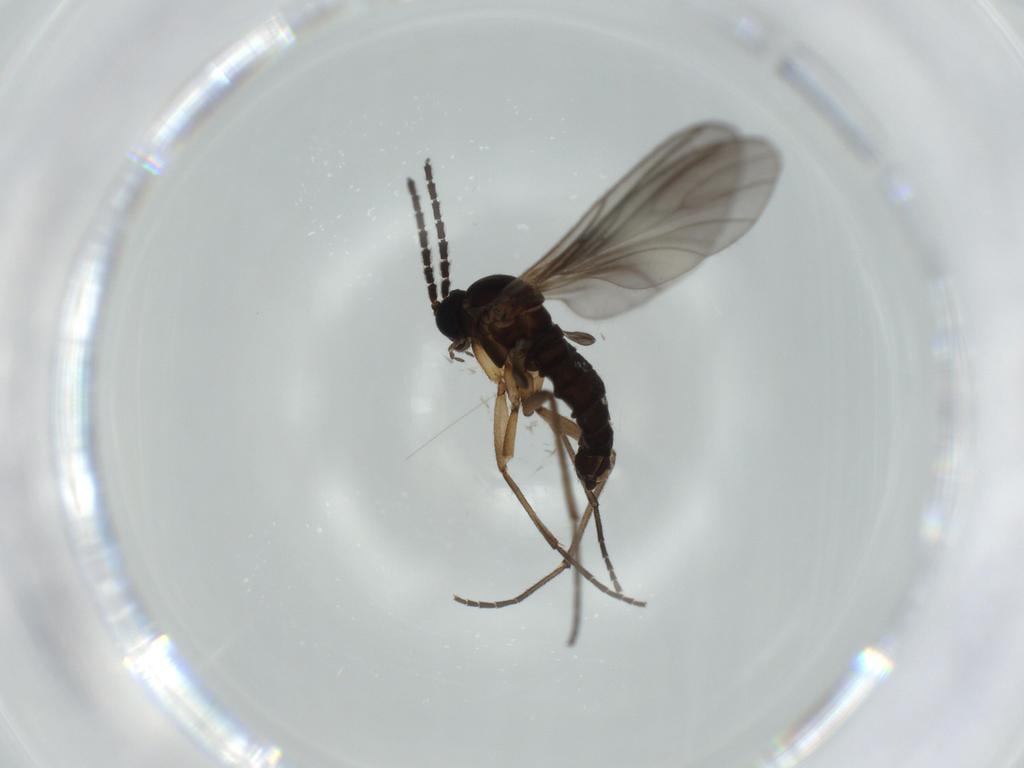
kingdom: Animalia
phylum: Arthropoda
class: Insecta
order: Diptera
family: Sciaridae
